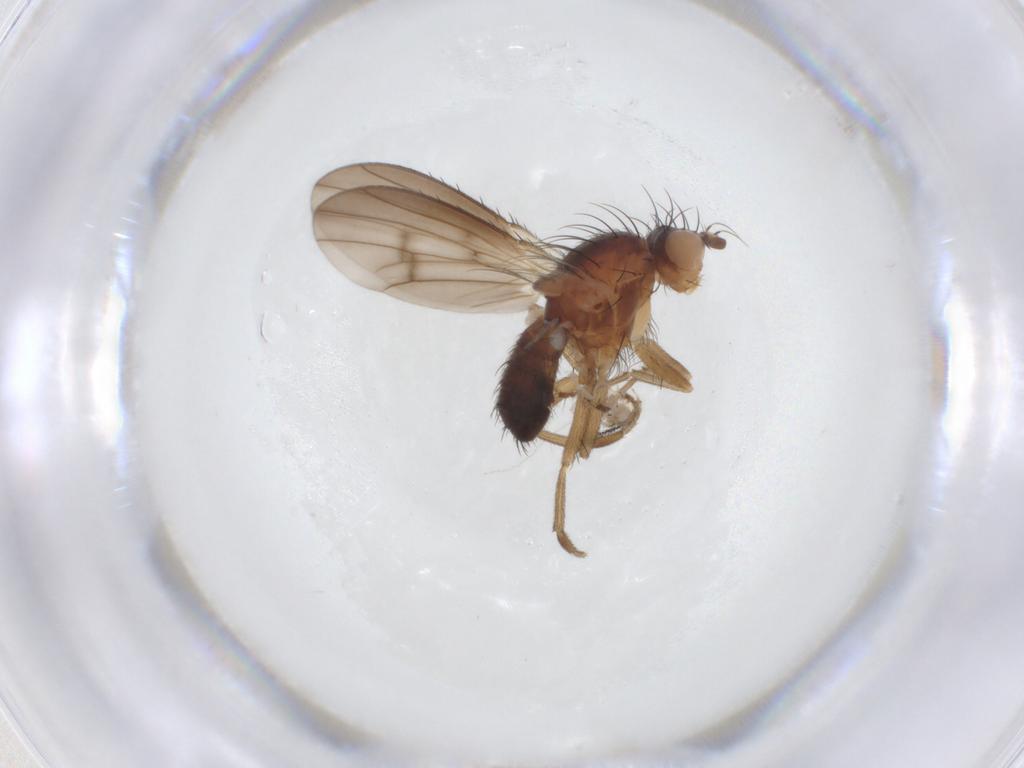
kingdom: Animalia
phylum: Arthropoda
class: Insecta
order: Diptera
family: Heleomyzidae
